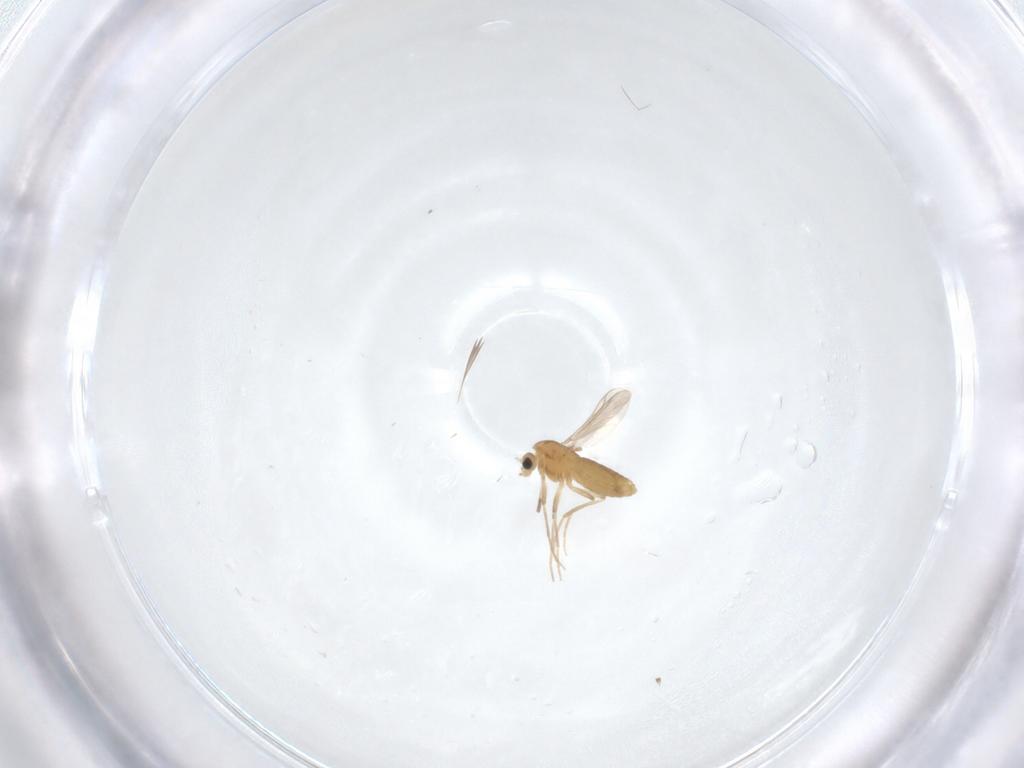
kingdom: Animalia
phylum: Arthropoda
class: Insecta
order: Diptera
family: Chironomidae
